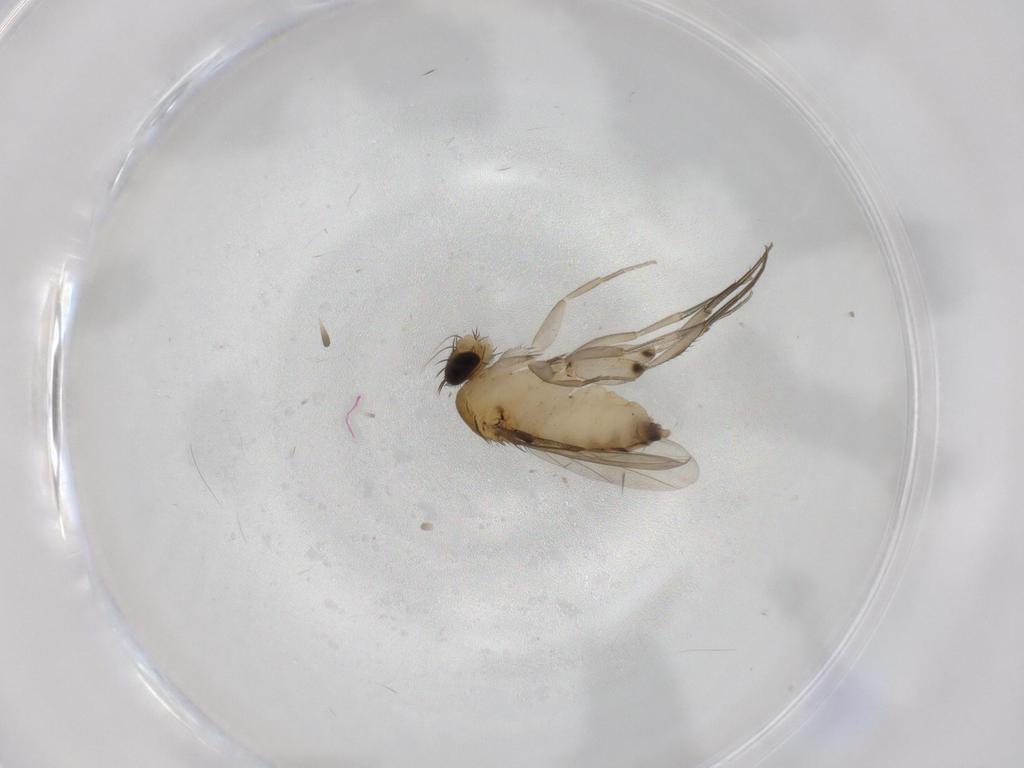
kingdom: Animalia
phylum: Arthropoda
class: Insecta
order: Diptera
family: Phoridae
